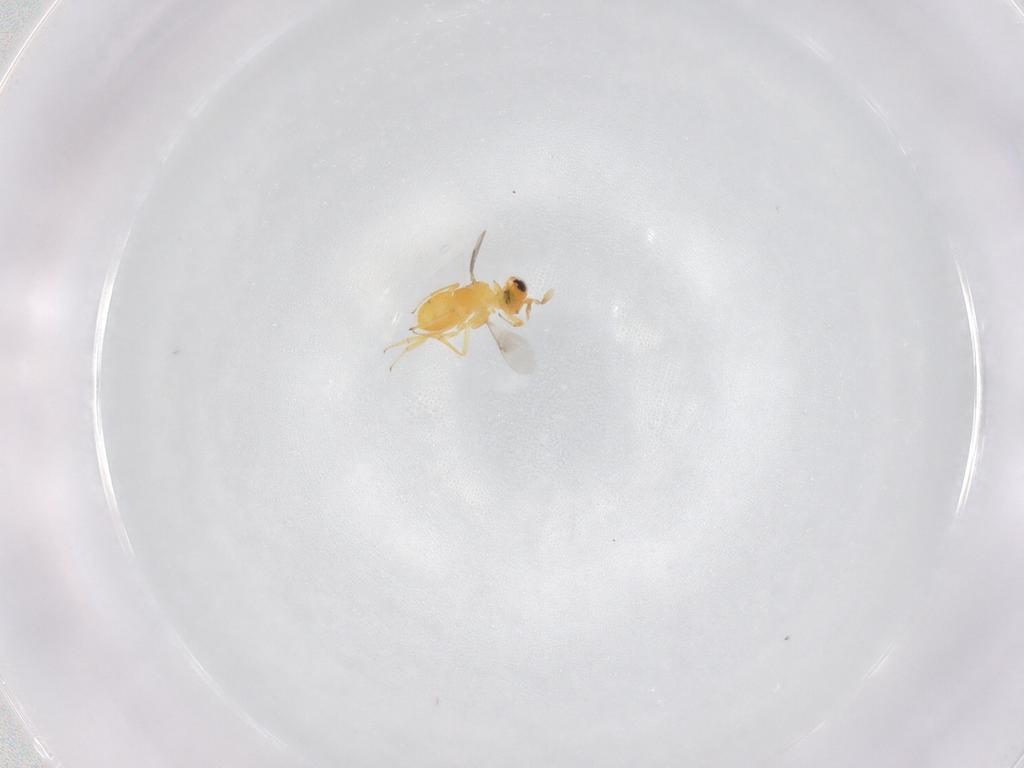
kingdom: Animalia
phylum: Arthropoda
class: Insecta
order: Hymenoptera
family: Encyrtidae
